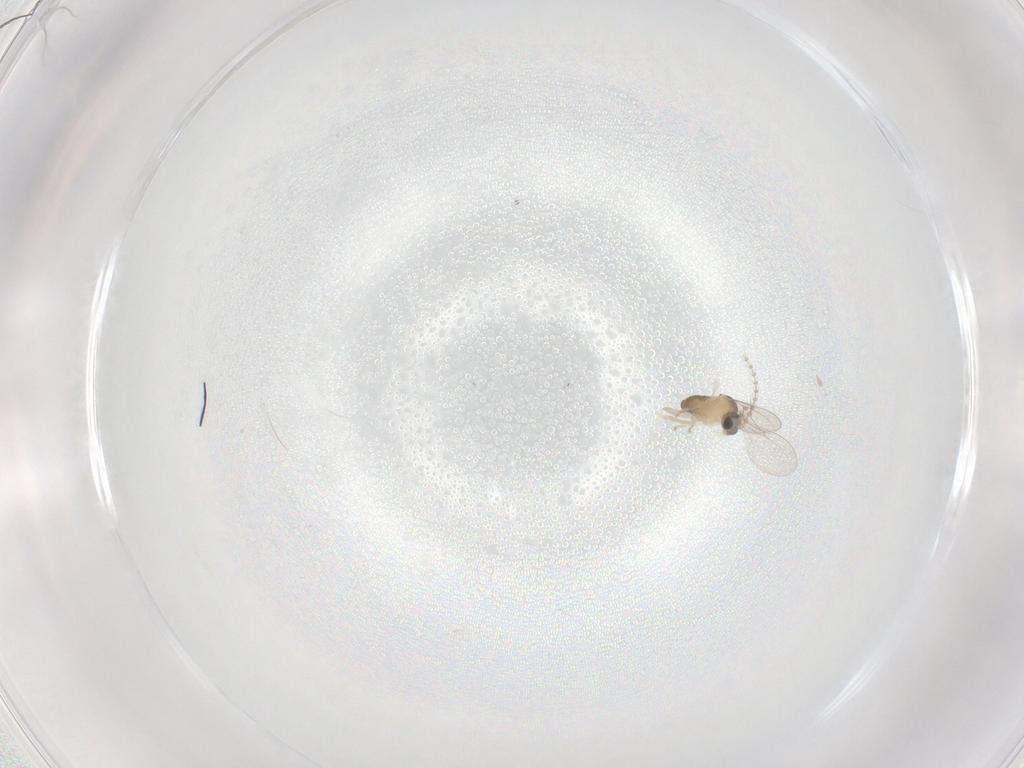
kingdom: Animalia
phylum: Arthropoda
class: Insecta
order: Diptera
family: Cecidomyiidae
